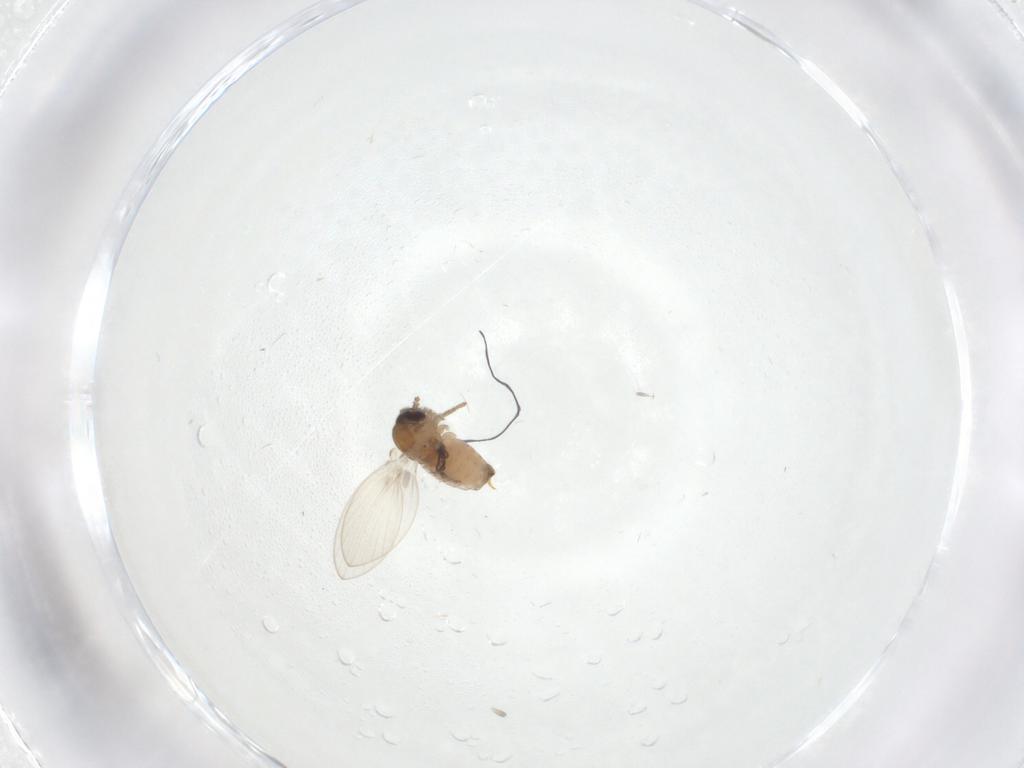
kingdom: Animalia
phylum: Arthropoda
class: Insecta
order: Diptera
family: Psychodidae
